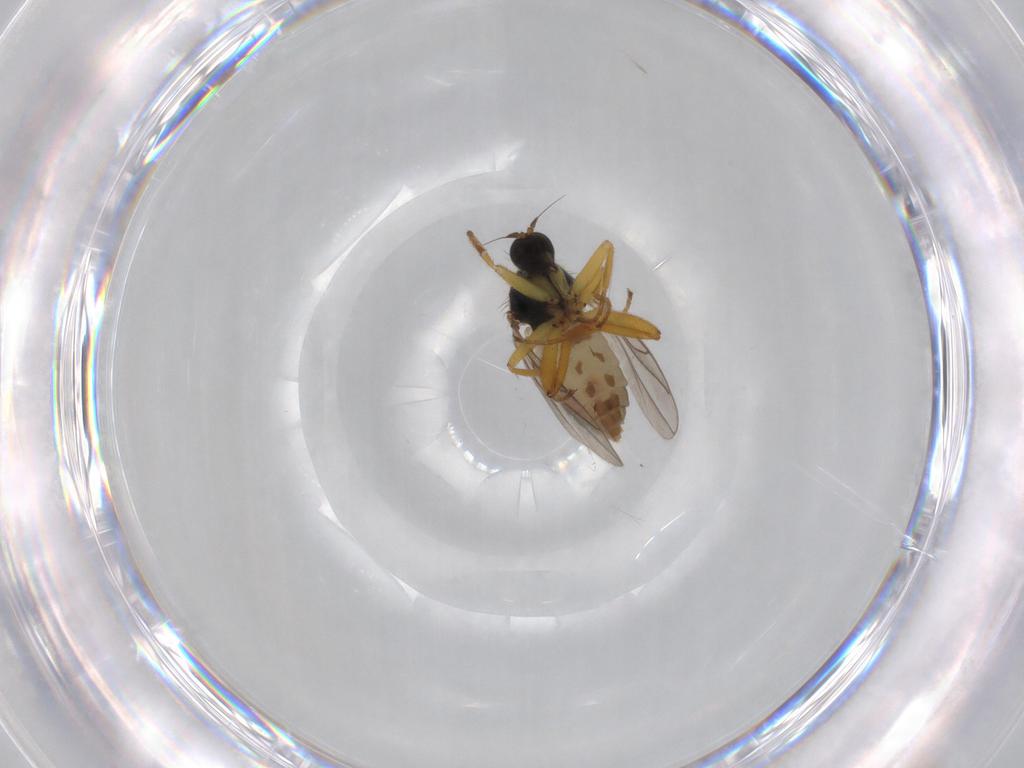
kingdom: Animalia
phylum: Arthropoda
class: Insecta
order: Diptera
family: Hybotidae
